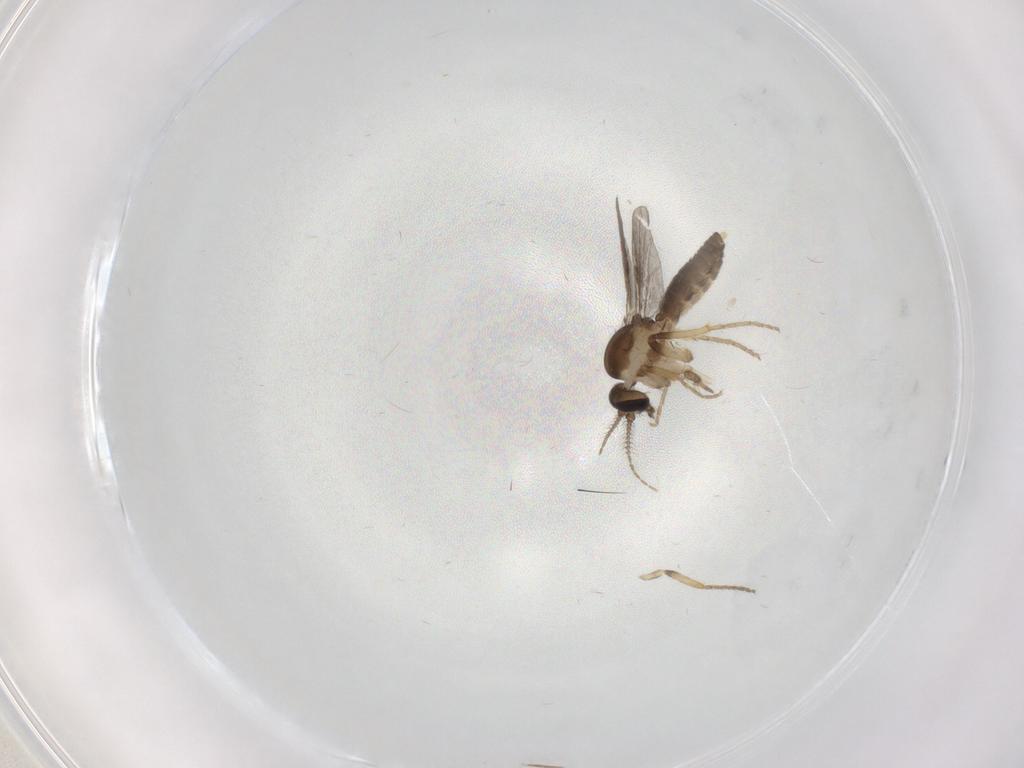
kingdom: Animalia
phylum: Arthropoda
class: Insecta
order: Diptera
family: Ceratopogonidae
